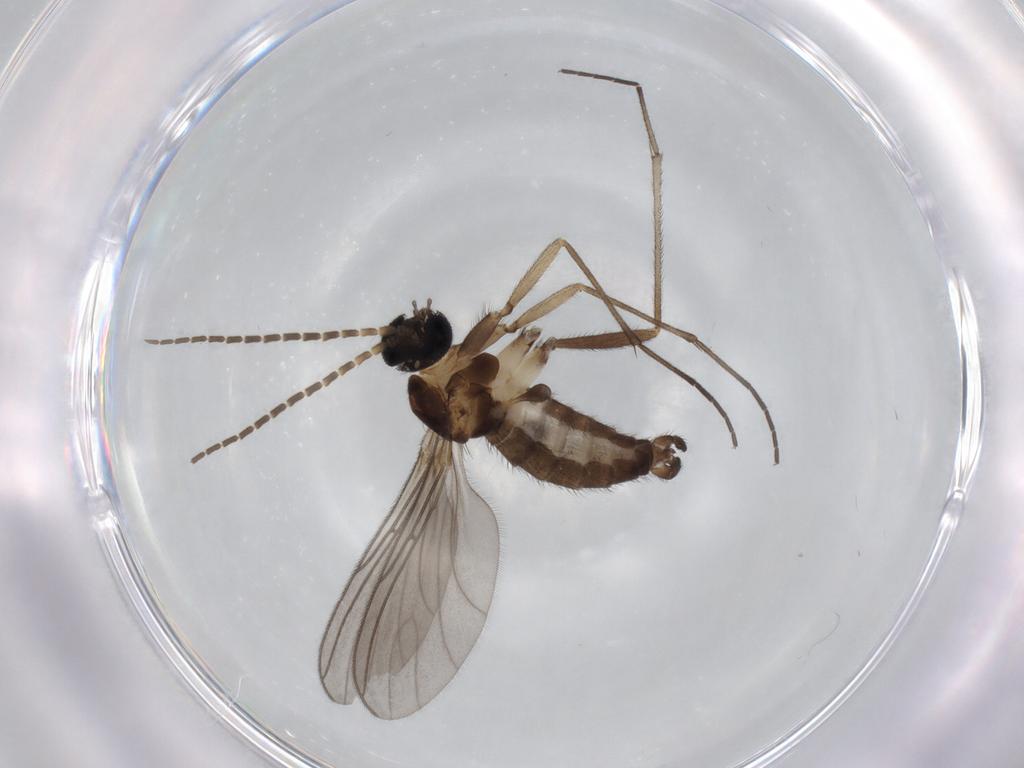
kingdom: Animalia
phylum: Arthropoda
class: Insecta
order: Diptera
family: Sciaridae
